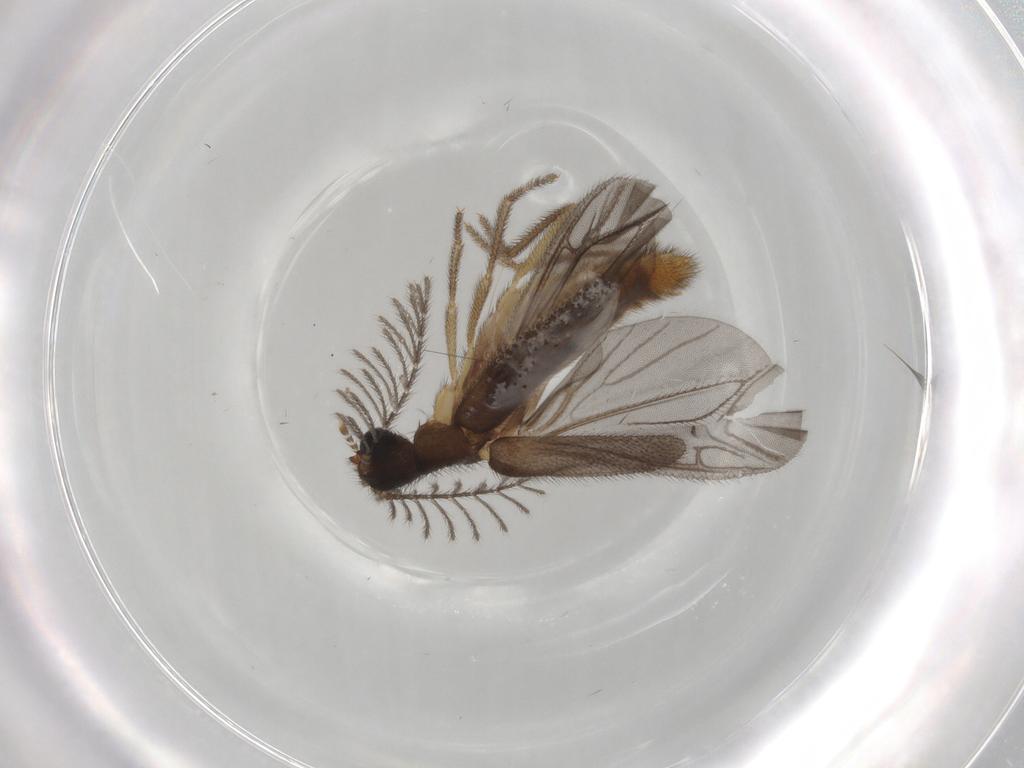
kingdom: Animalia
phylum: Arthropoda
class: Insecta
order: Coleoptera
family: Phengodidae
